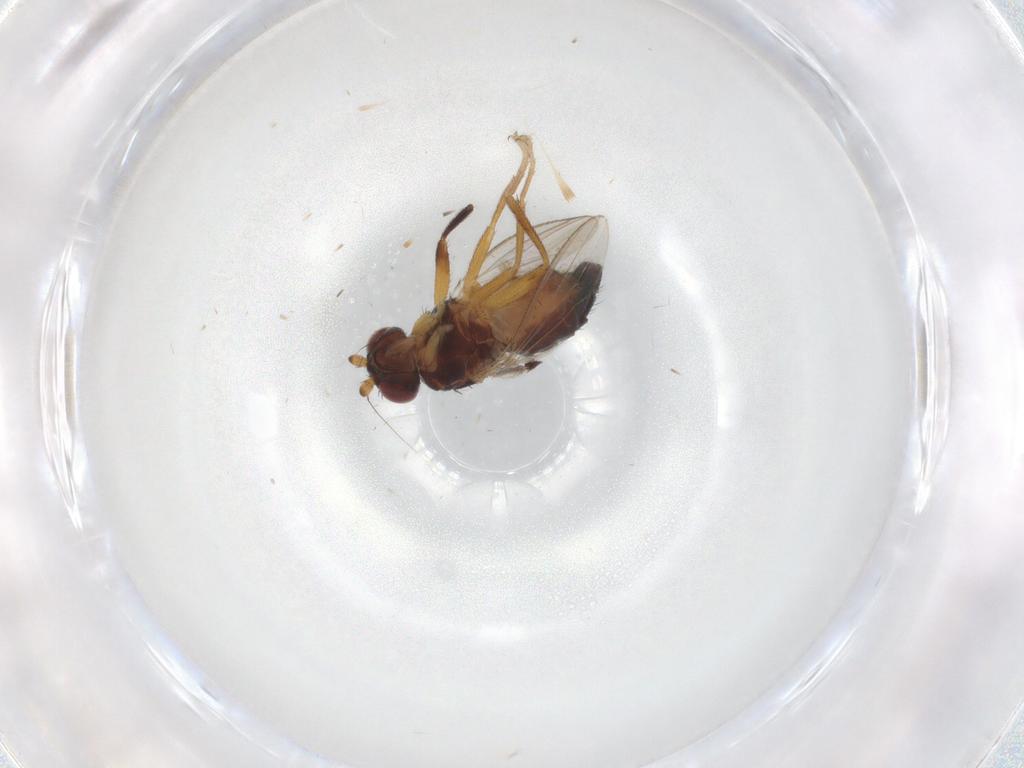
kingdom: Animalia
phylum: Arthropoda
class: Insecta
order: Diptera
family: Cypselosomatidae
